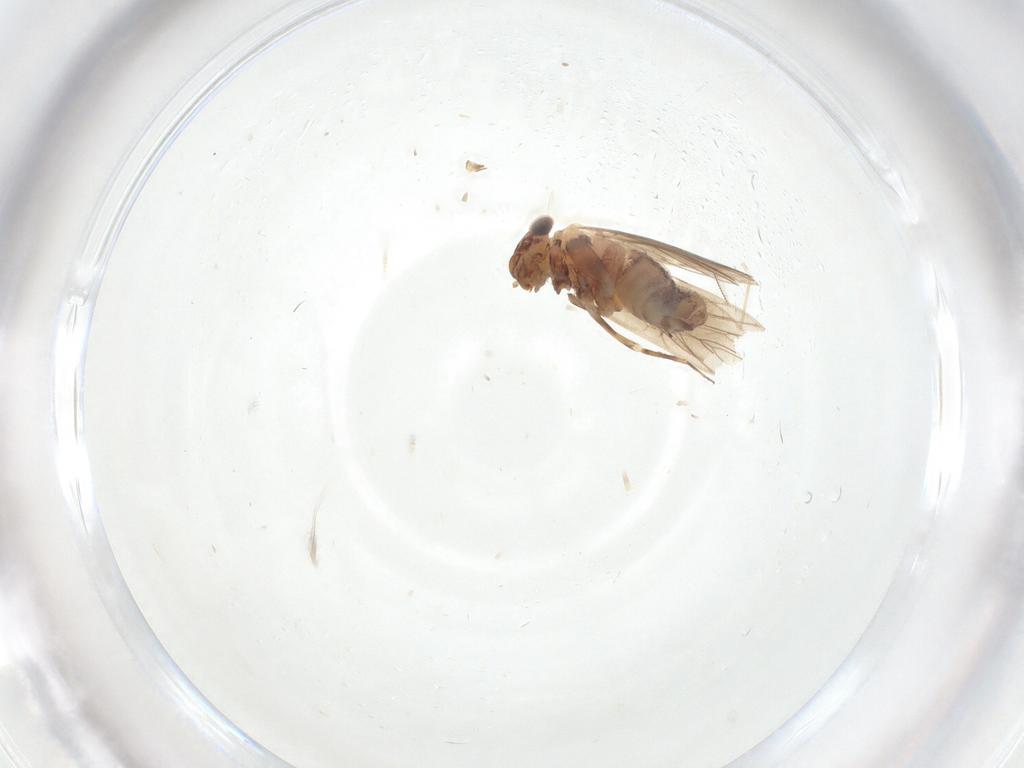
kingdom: Animalia
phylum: Arthropoda
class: Insecta
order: Psocodea
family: Lepidopsocidae
